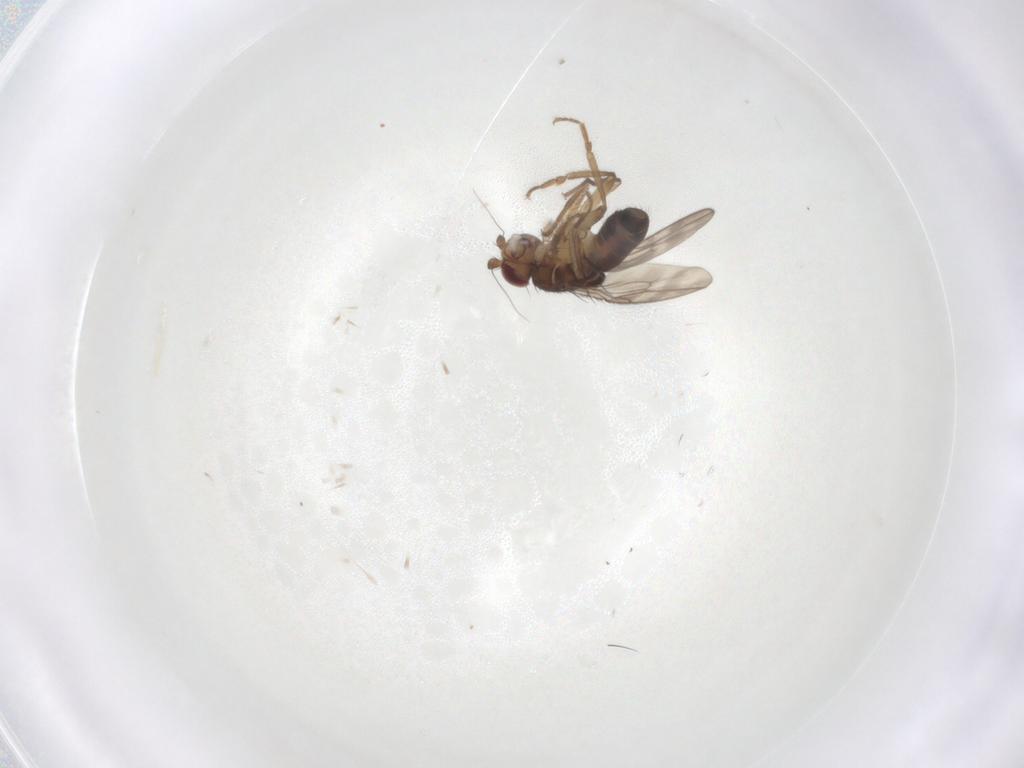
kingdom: Animalia
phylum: Arthropoda
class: Insecta
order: Diptera
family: Sphaeroceridae
